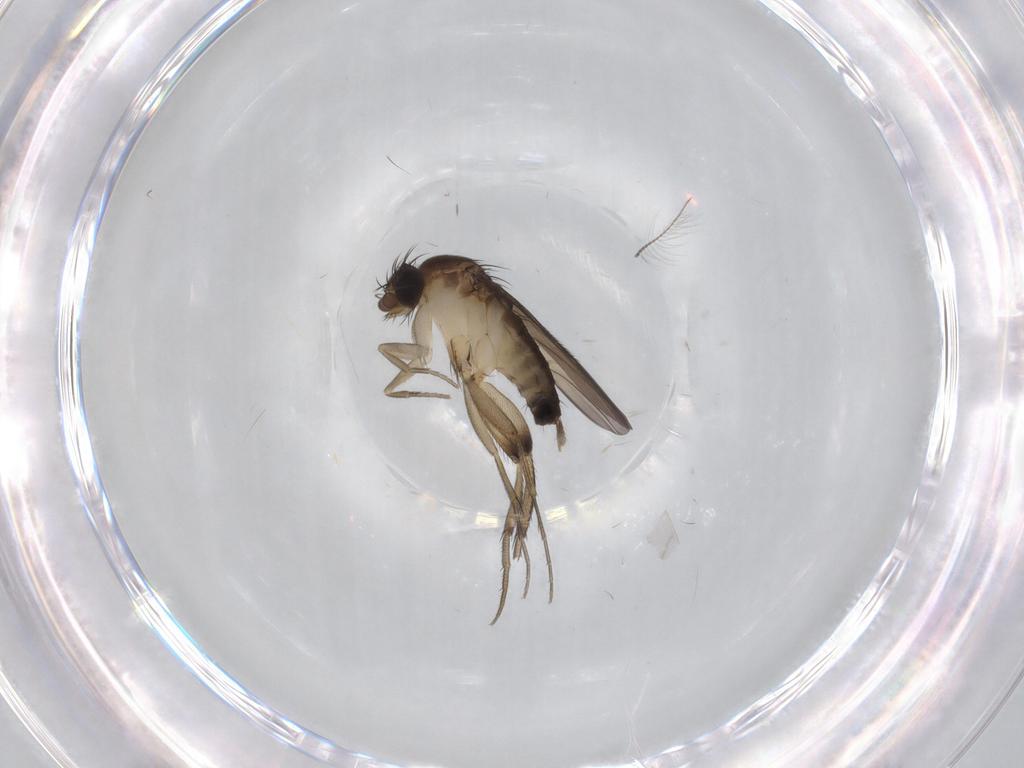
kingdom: Animalia
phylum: Arthropoda
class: Insecta
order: Diptera
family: Phoridae
